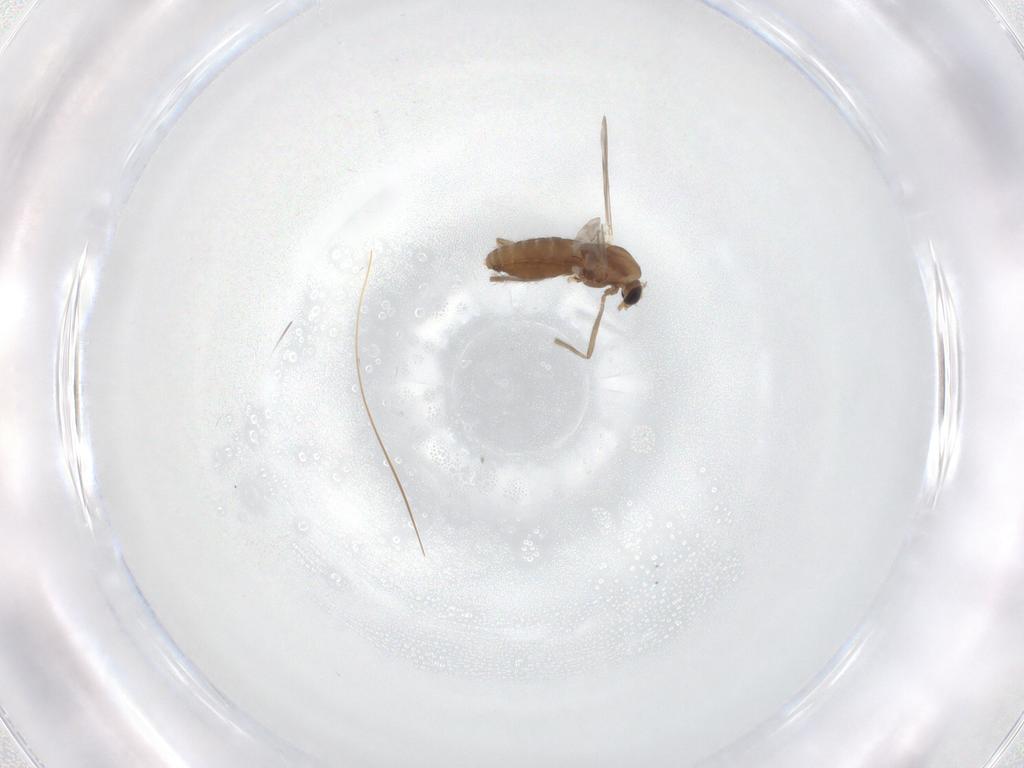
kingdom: Animalia
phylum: Arthropoda
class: Insecta
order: Diptera
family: Chironomidae
